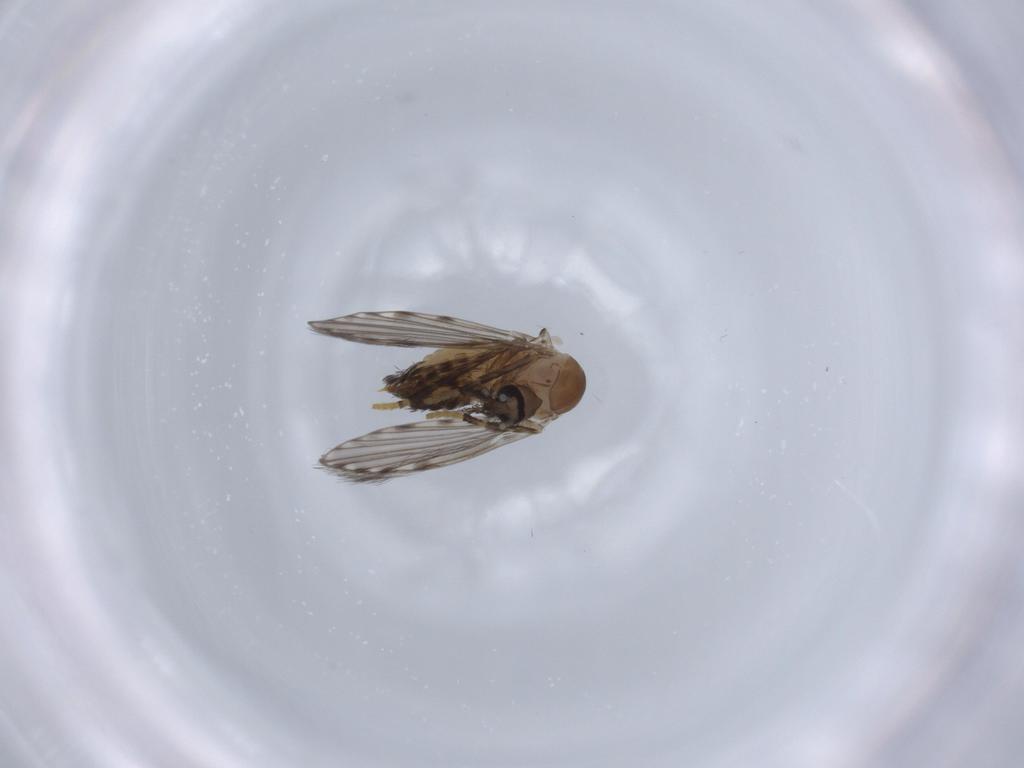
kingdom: Animalia
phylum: Arthropoda
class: Insecta
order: Diptera
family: Psychodidae
